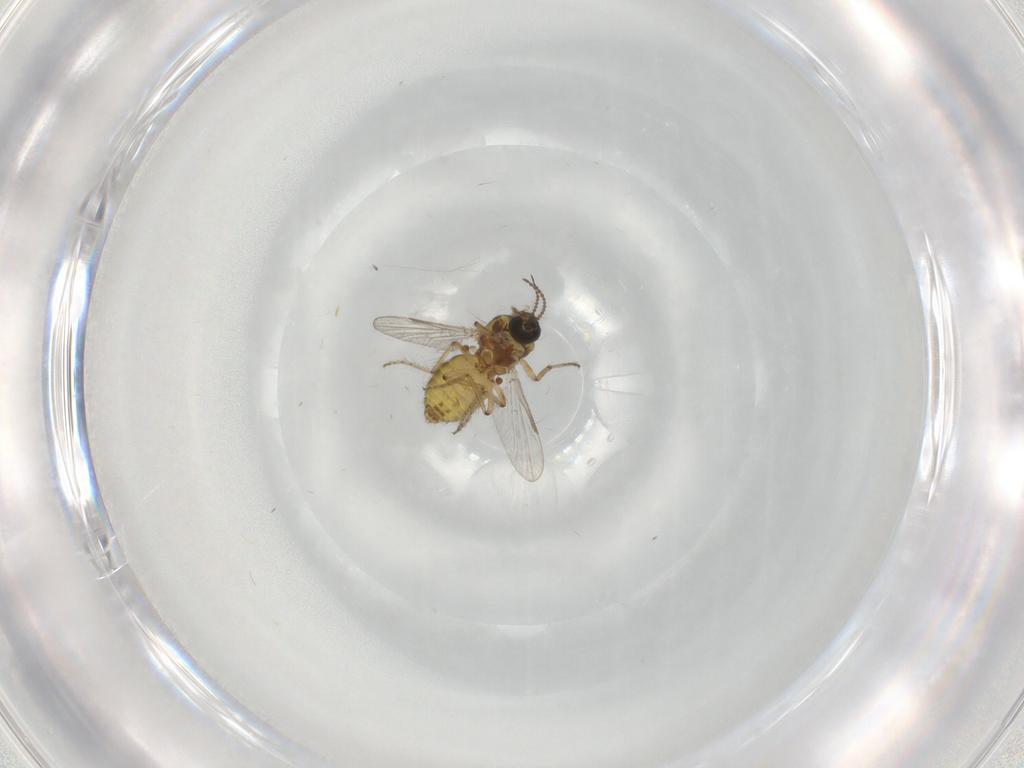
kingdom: Animalia
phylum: Arthropoda
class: Insecta
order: Diptera
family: Ceratopogonidae
